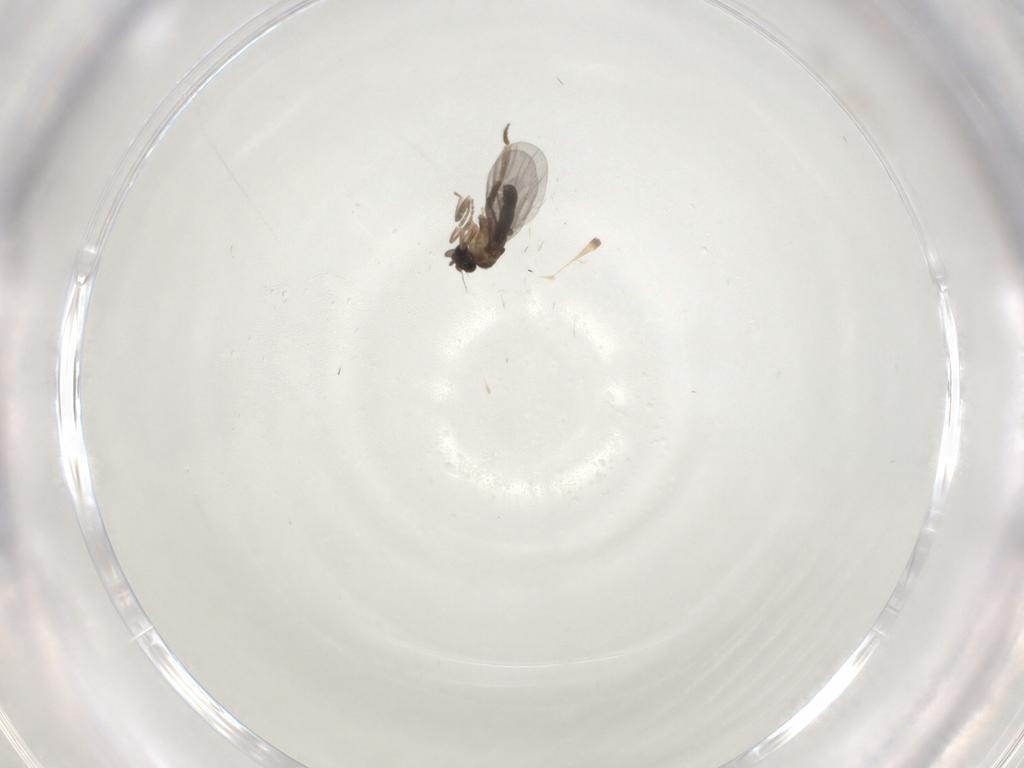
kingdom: Animalia
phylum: Arthropoda
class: Insecta
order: Diptera
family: Phoridae
